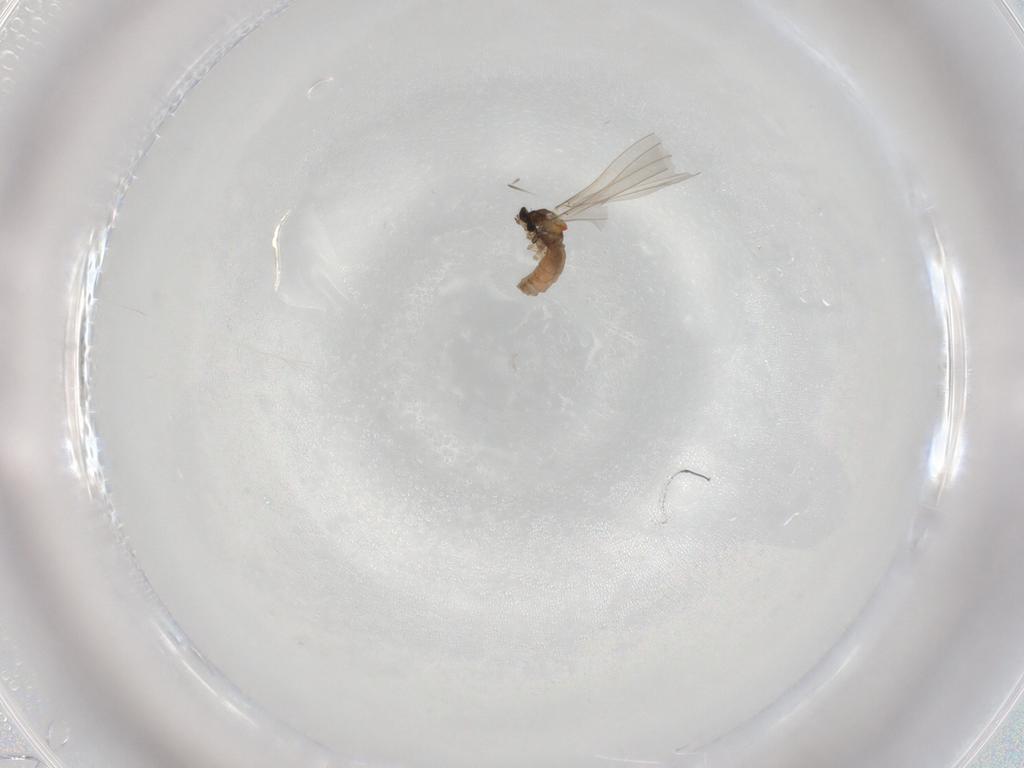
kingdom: Animalia
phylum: Arthropoda
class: Insecta
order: Diptera
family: Cecidomyiidae
